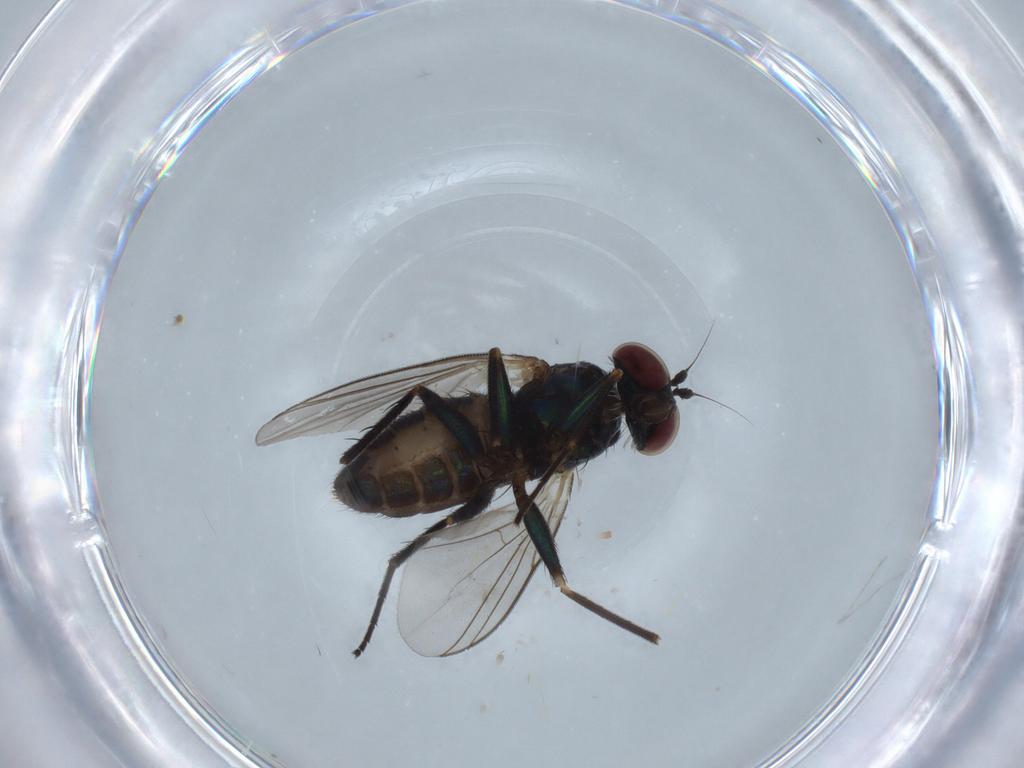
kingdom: Animalia
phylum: Arthropoda
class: Insecta
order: Diptera
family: Dolichopodidae
